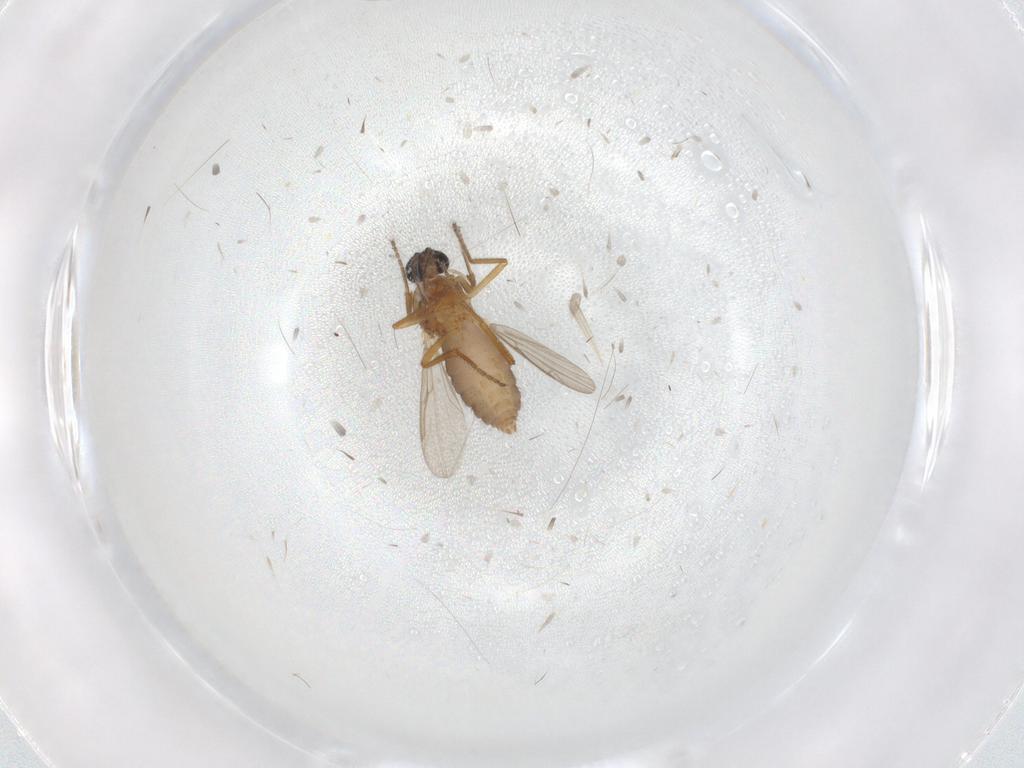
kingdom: Animalia
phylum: Arthropoda
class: Insecta
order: Diptera
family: Ceratopogonidae
